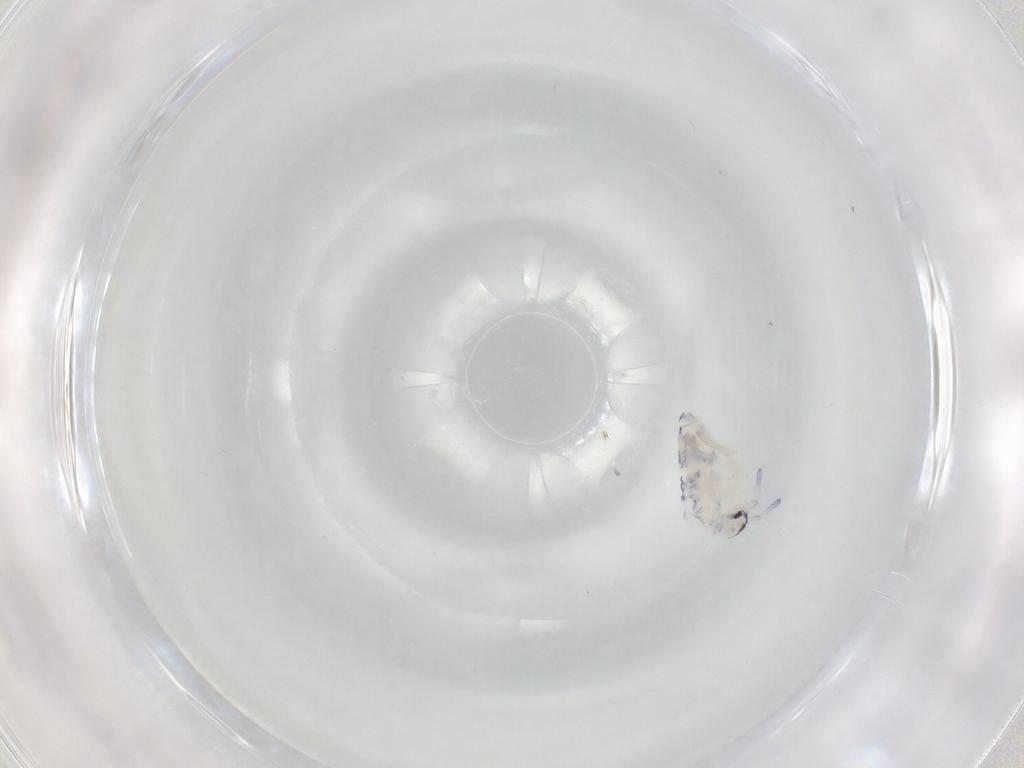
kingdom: Animalia
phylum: Arthropoda
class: Collembola
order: Entomobryomorpha
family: Entomobryidae
